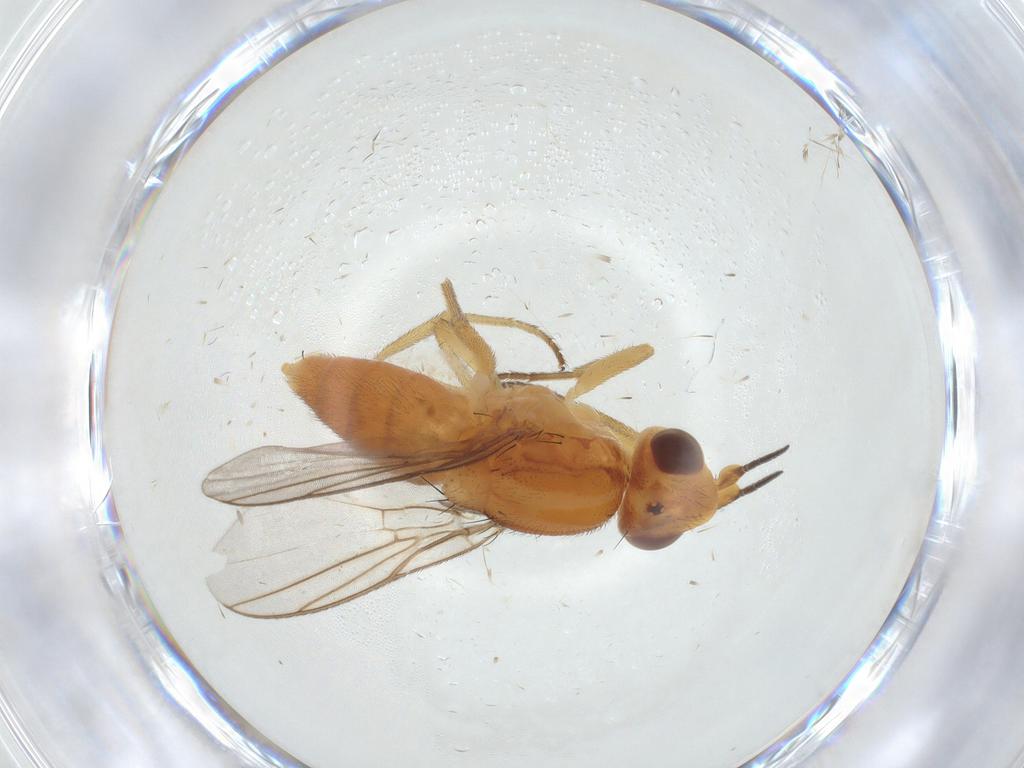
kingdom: Animalia
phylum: Arthropoda
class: Insecta
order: Diptera
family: Chloropidae
